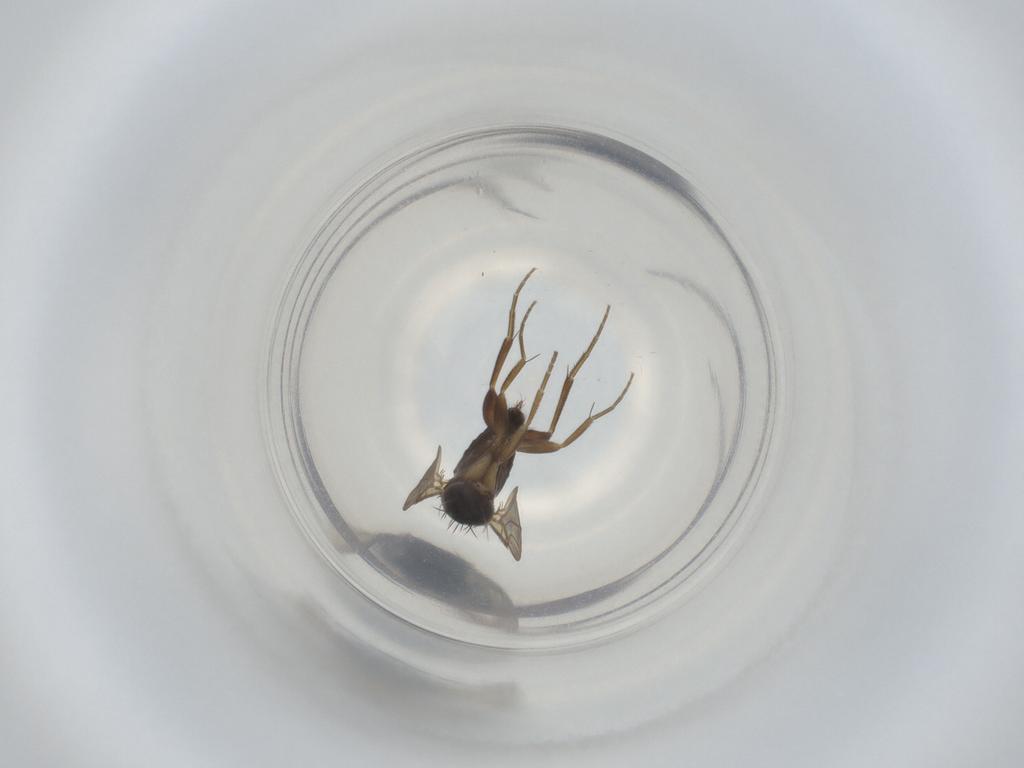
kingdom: Animalia
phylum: Arthropoda
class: Insecta
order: Diptera
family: Phoridae
